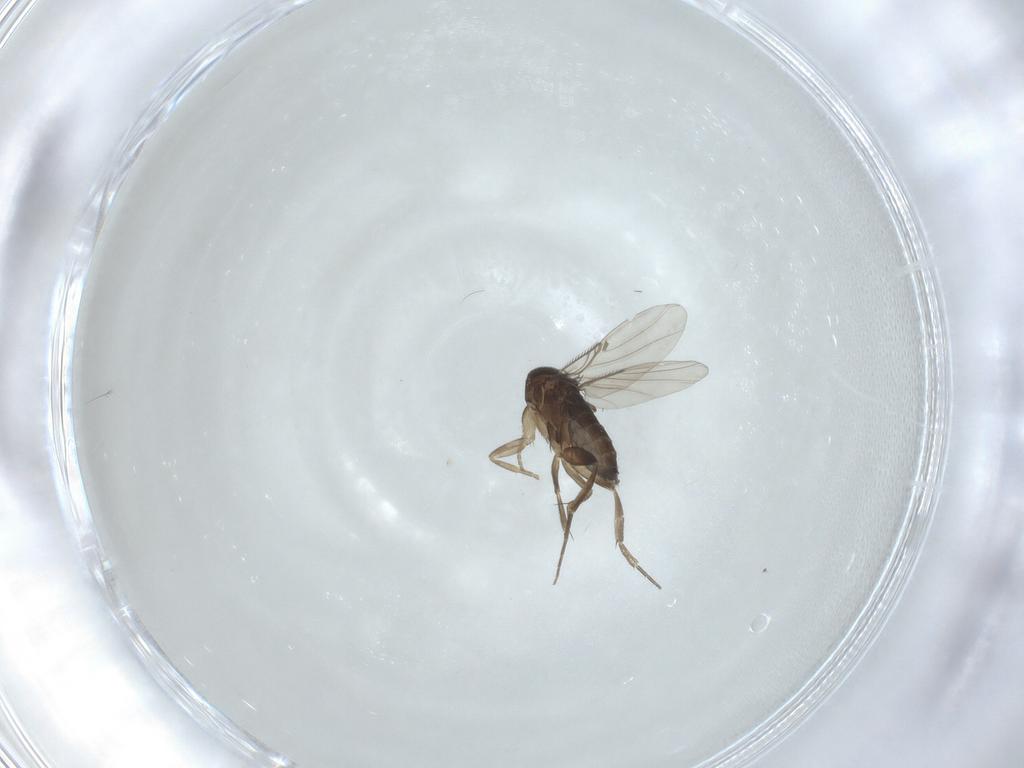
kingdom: Animalia
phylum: Arthropoda
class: Insecta
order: Diptera
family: Phoridae
